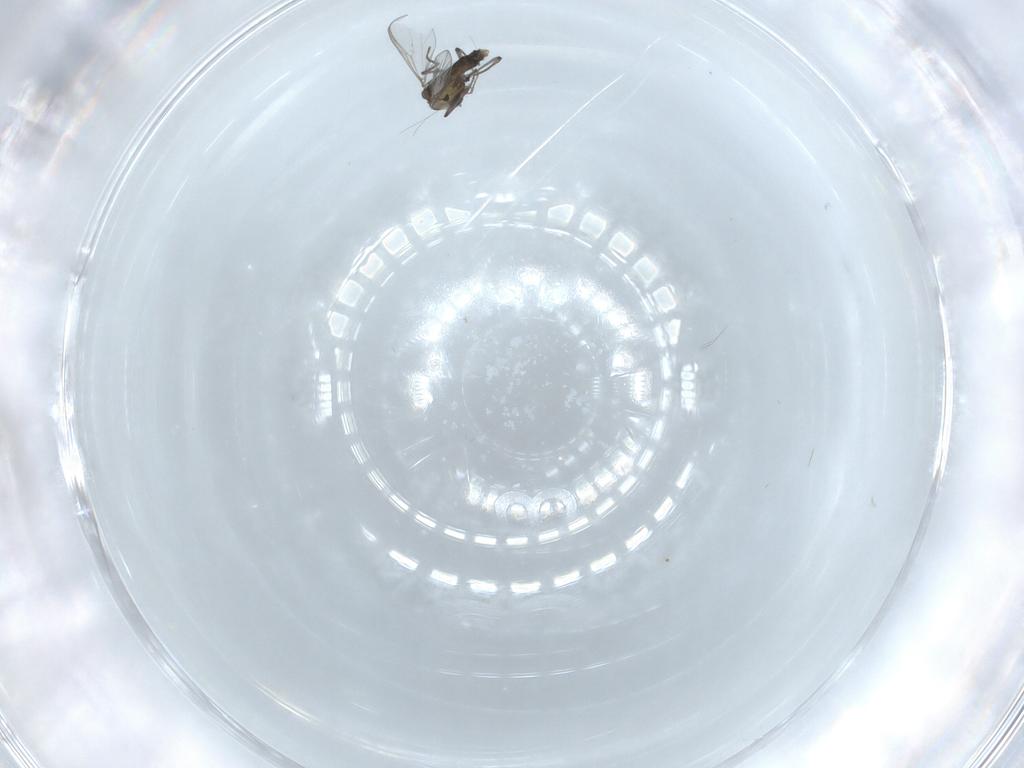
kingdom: Animalia
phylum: Arthropoda
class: Insecta
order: Diptera
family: Chironomidae
